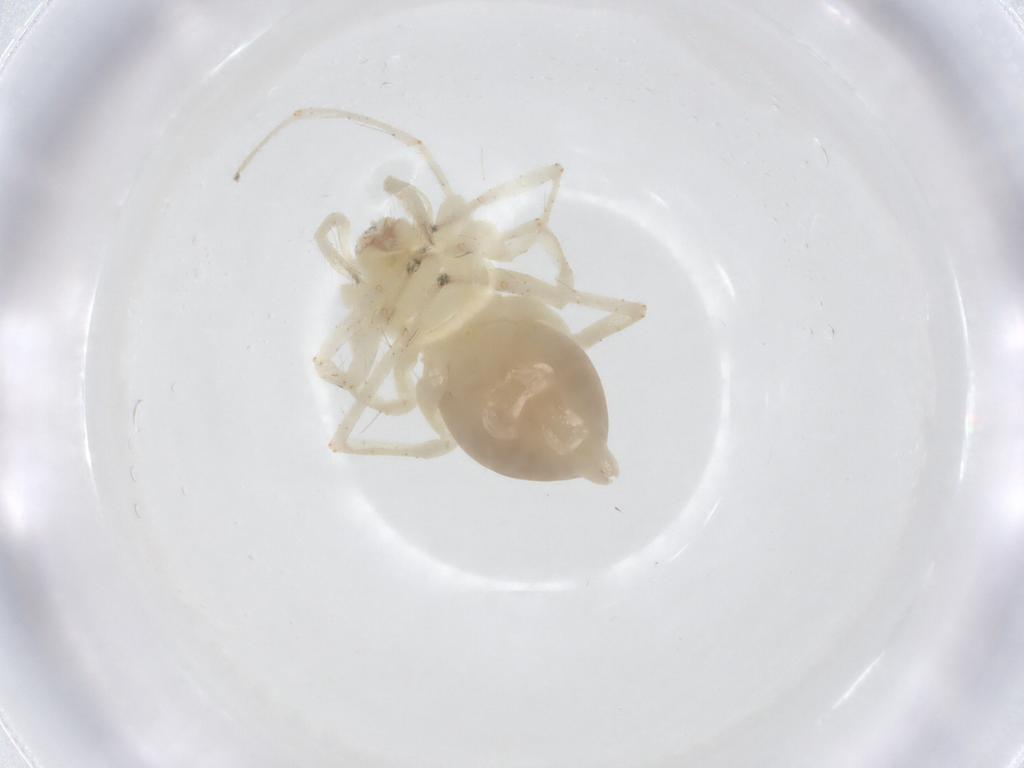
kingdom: Animalia
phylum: Arthropoda
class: Arachnida
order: Araneae
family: Anyphaenidae
